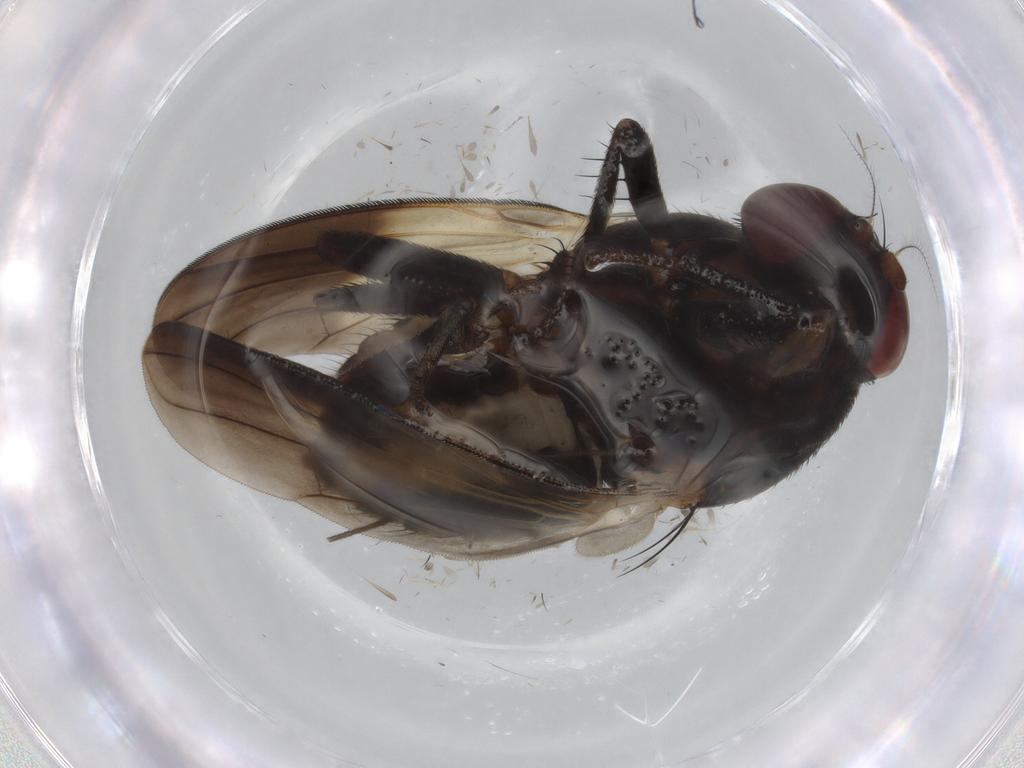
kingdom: Animalia
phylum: Arthropoda
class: Insecta
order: Diptera
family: Lauxaniidae
